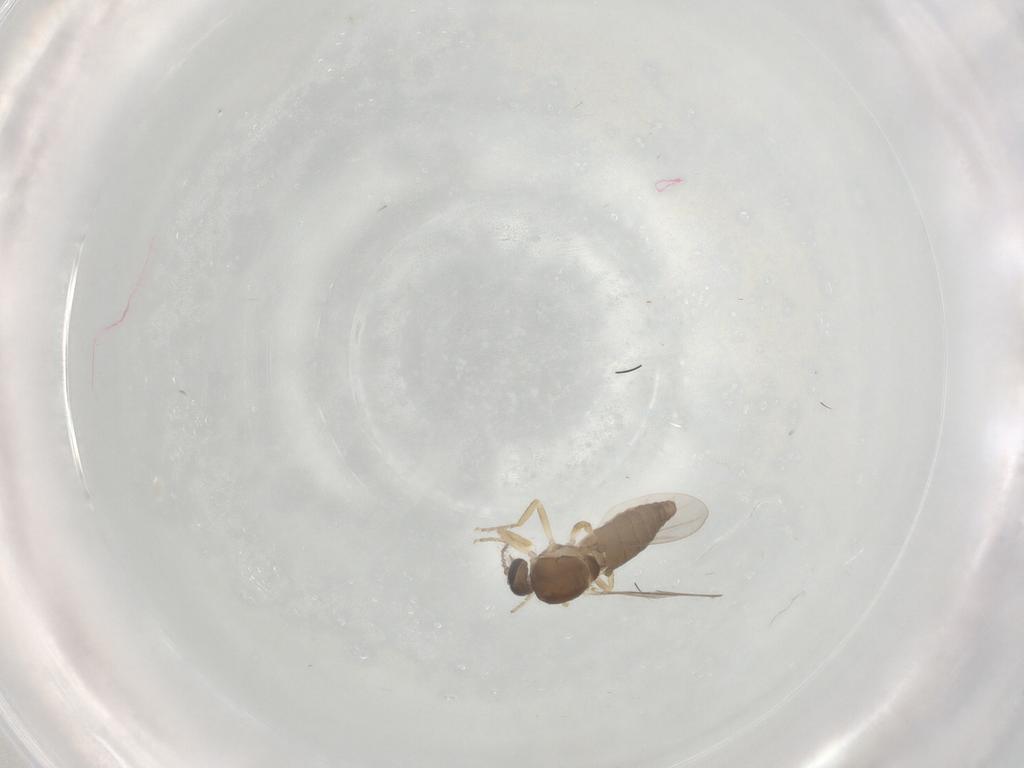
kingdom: Animalia
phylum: Arthropoda
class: Insecta
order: Diptera
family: Ceratopogonidae
